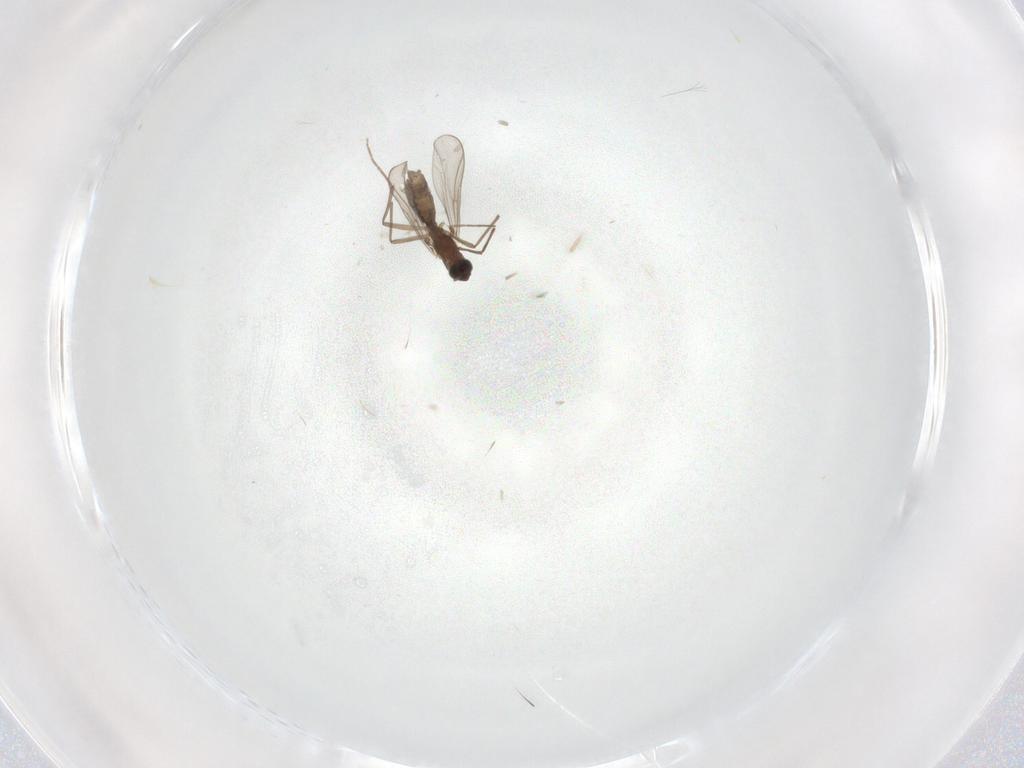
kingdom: Animalia
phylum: Arthropoda
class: Insecta
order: Diptera
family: Chironomidae
